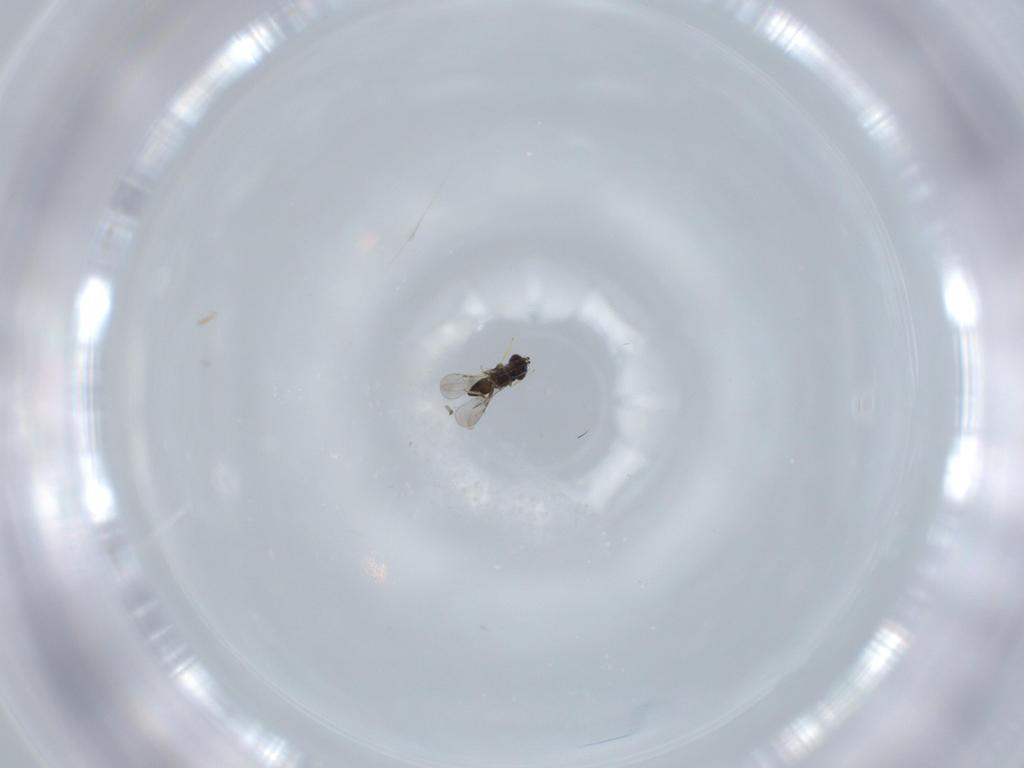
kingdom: Animalia
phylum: Arthropoda
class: Insecta
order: Hymenoptera
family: Ceraphronidae
